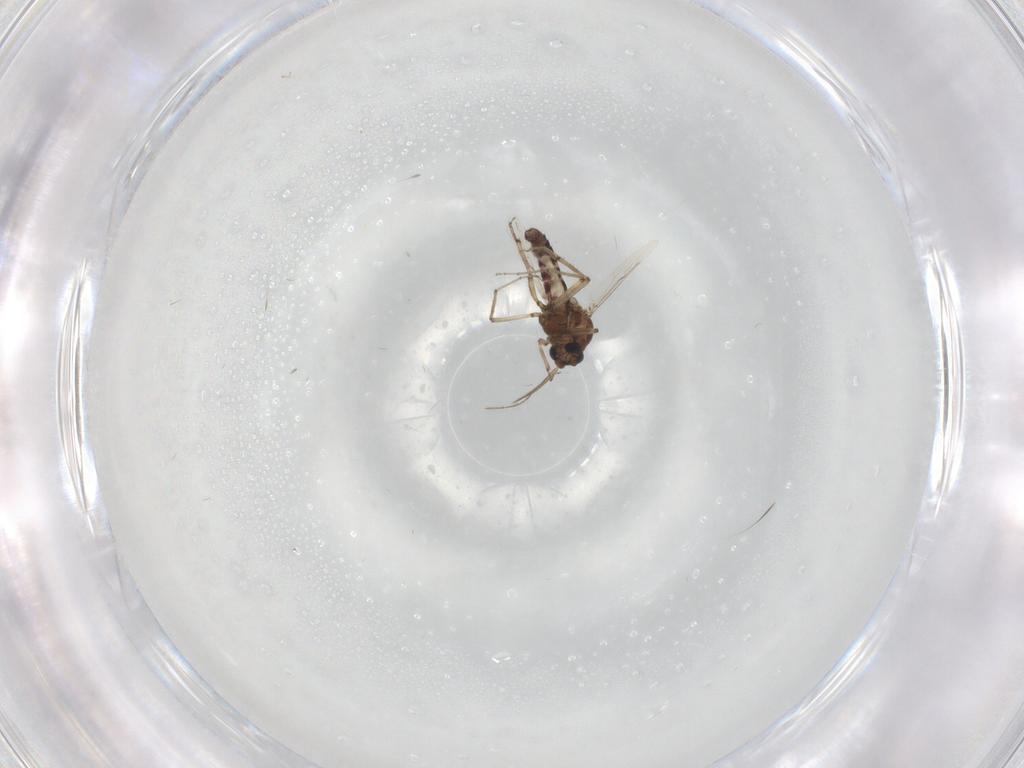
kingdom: Animalia
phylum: Arthropoda
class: Insecta
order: Diptera
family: Ceratopogonidae
